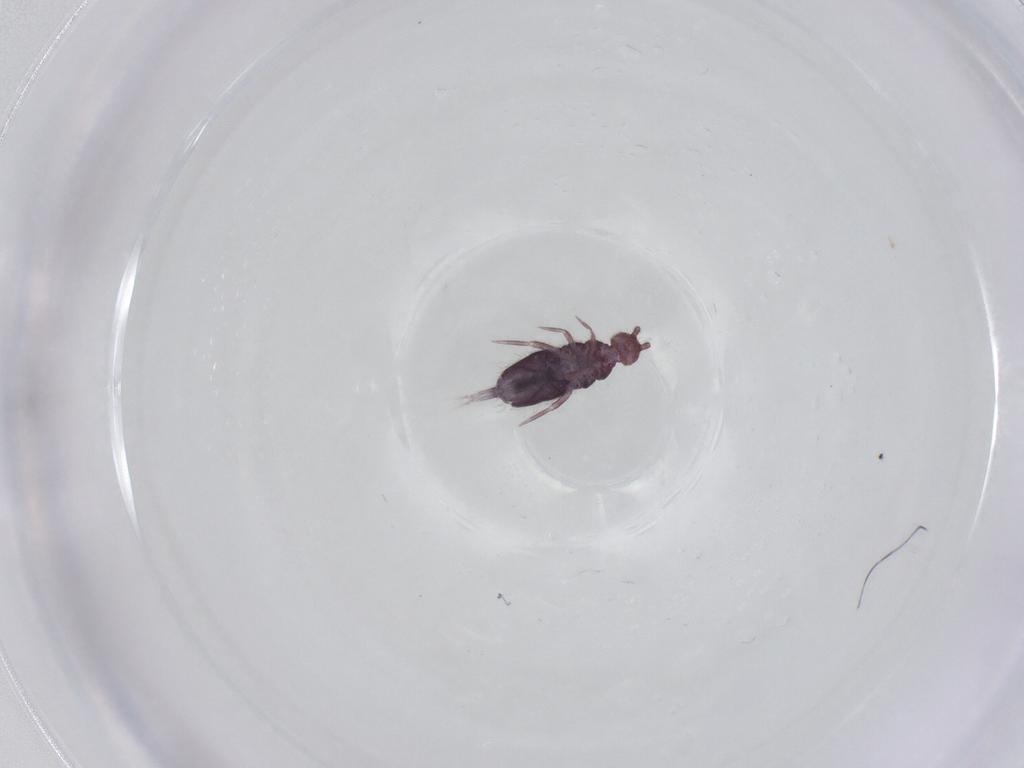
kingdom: Animalia
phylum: Arthropoda
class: Collembola
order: Entomobryomorpha
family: Entomobryidae
